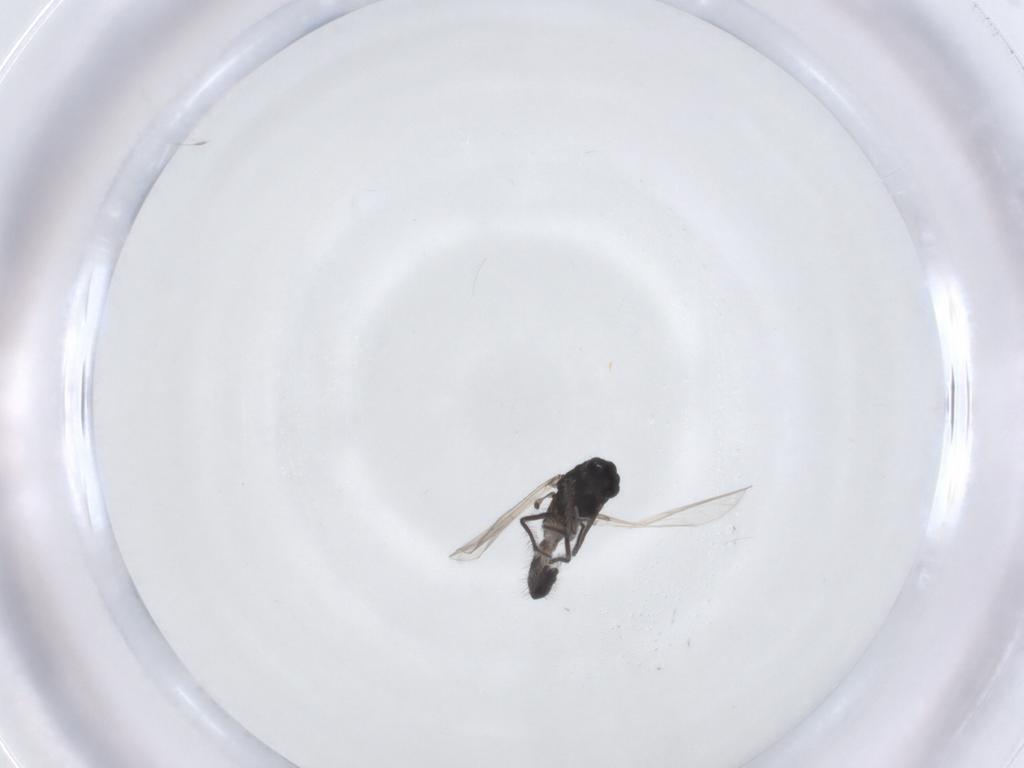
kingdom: Animalia
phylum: Arthropoda
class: Insecta
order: Diptera
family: Chironomidae
